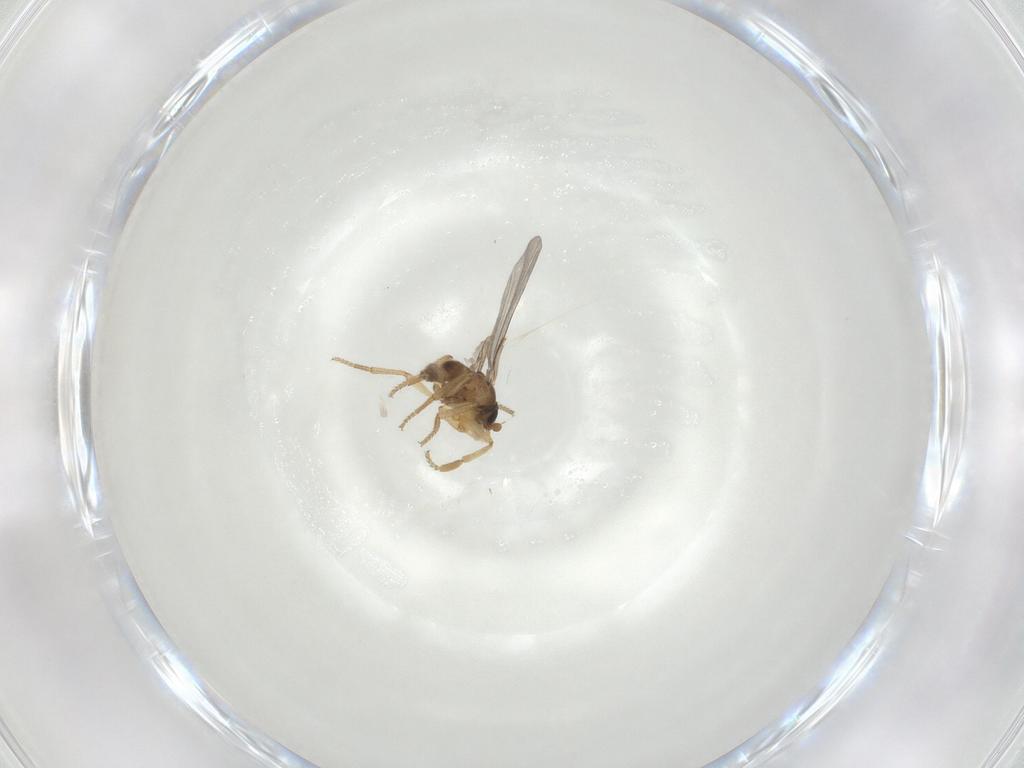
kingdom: Animalia
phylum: Arthropoda
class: Insecta
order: Diptera
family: Phoridae
